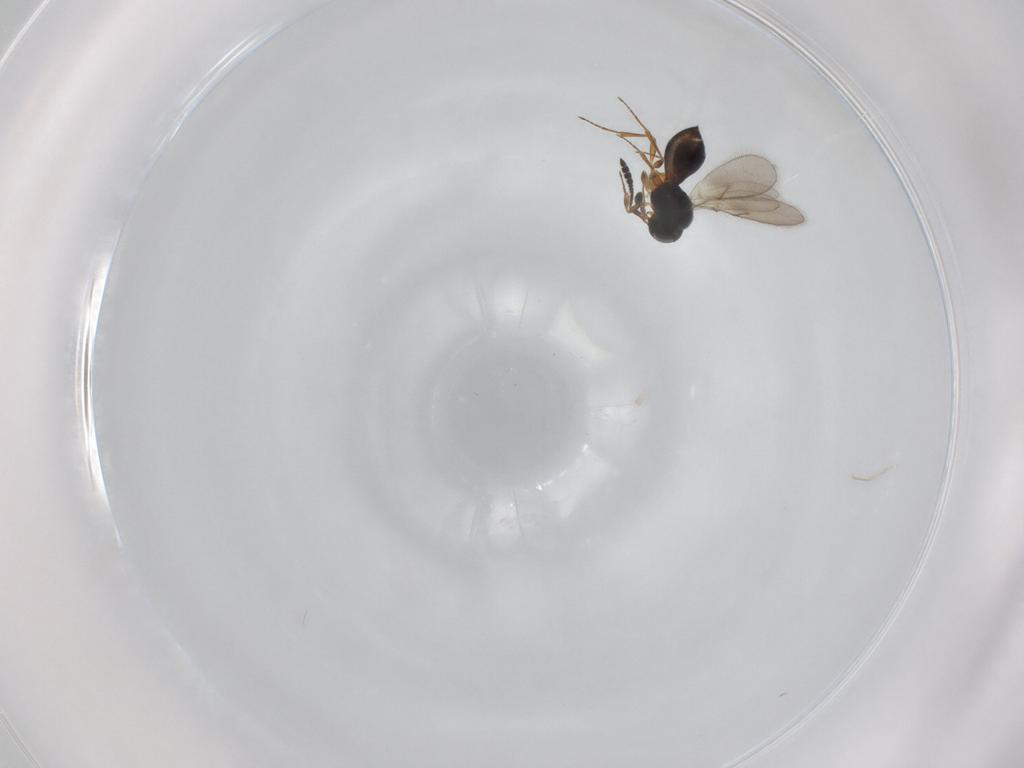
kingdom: Animalia
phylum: Arthropoda
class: Insecta
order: Hymenoptera
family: Scelionidae
